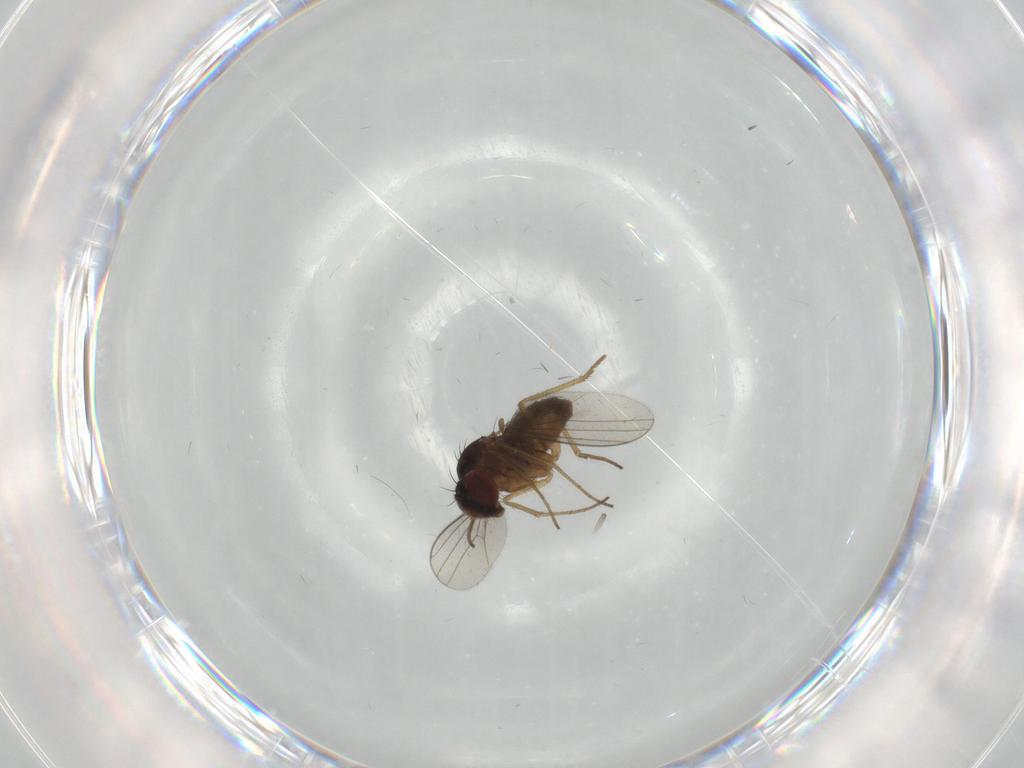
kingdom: Animalia
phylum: Arthropoda
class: Insecta
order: Diptera
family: Dolichopodidae
